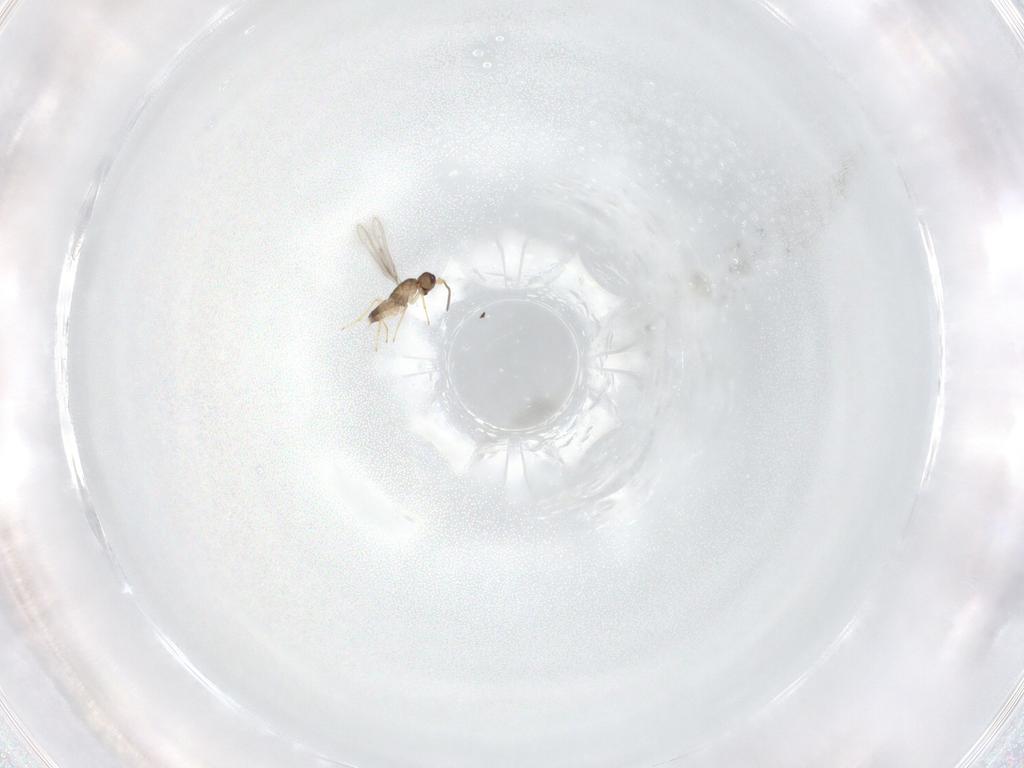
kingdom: Animalia
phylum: Arthropoda
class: Insecta
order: Hymenoptera
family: Mymaridae
